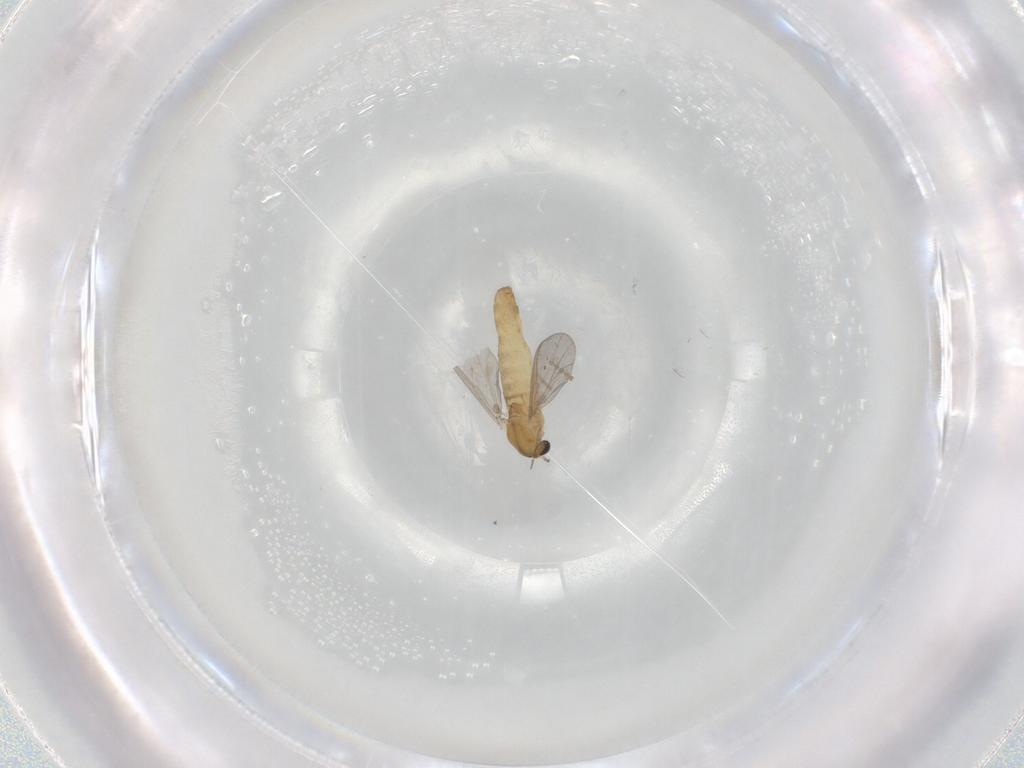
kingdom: Animalia
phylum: Arthropoda
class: Insecta
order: Diptera
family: Chironomidae
